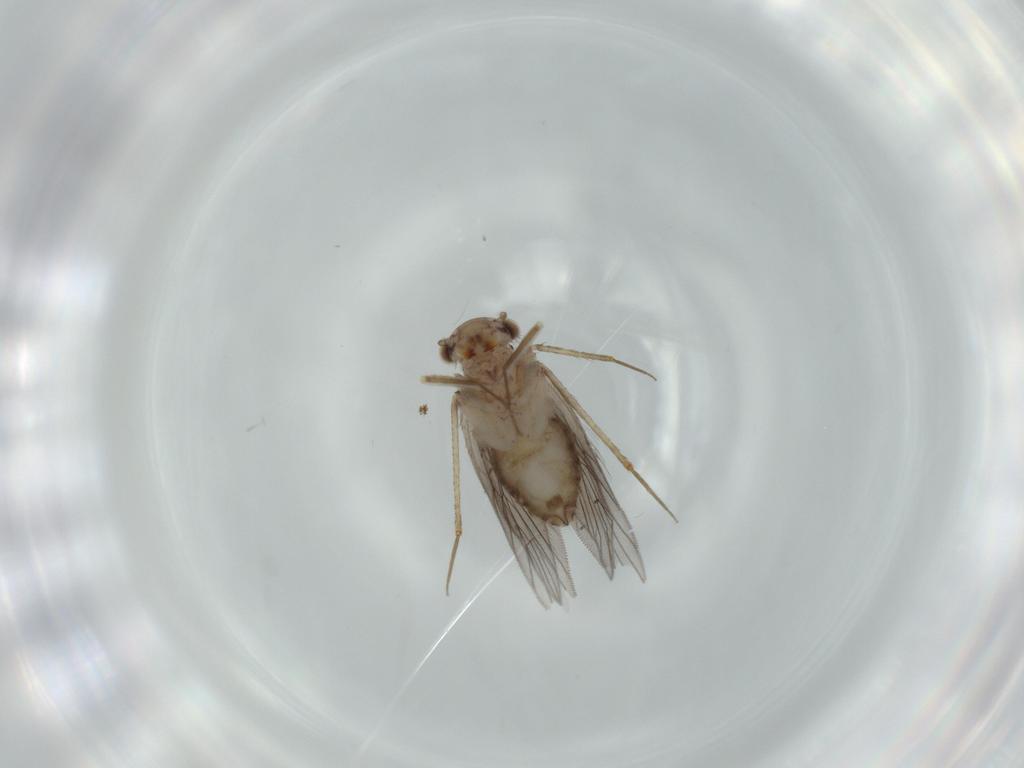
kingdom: Animalia
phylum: Arthropoda
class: Insecta
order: Psocodea
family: Lepidopsocidae
